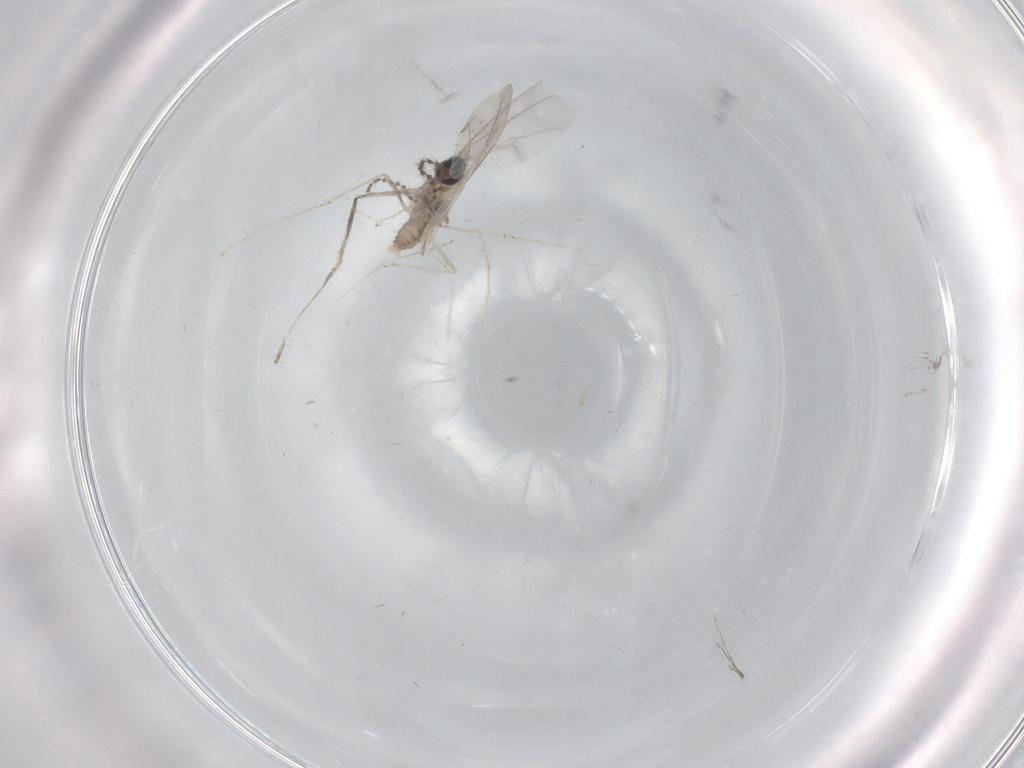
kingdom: Animalia
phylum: Arthropoda
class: Insecta
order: Diptera
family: Cecidomyiidae
